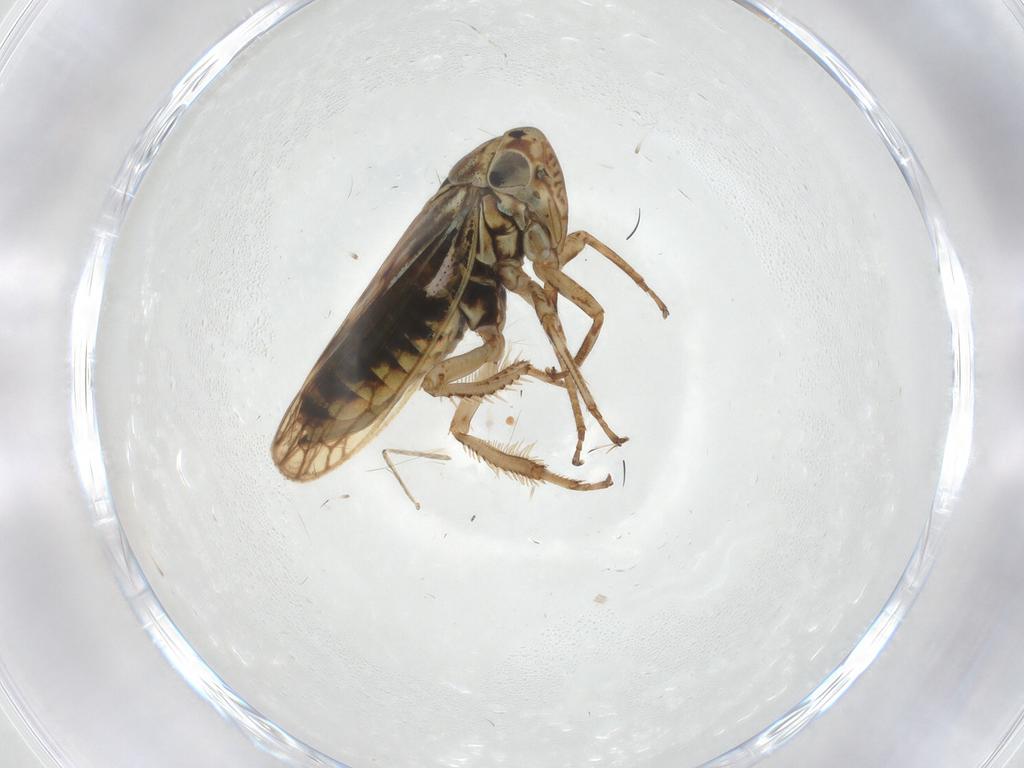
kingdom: Animalia
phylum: Arthropoda
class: Insecta
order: Hemiptera
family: Cicadellidae
